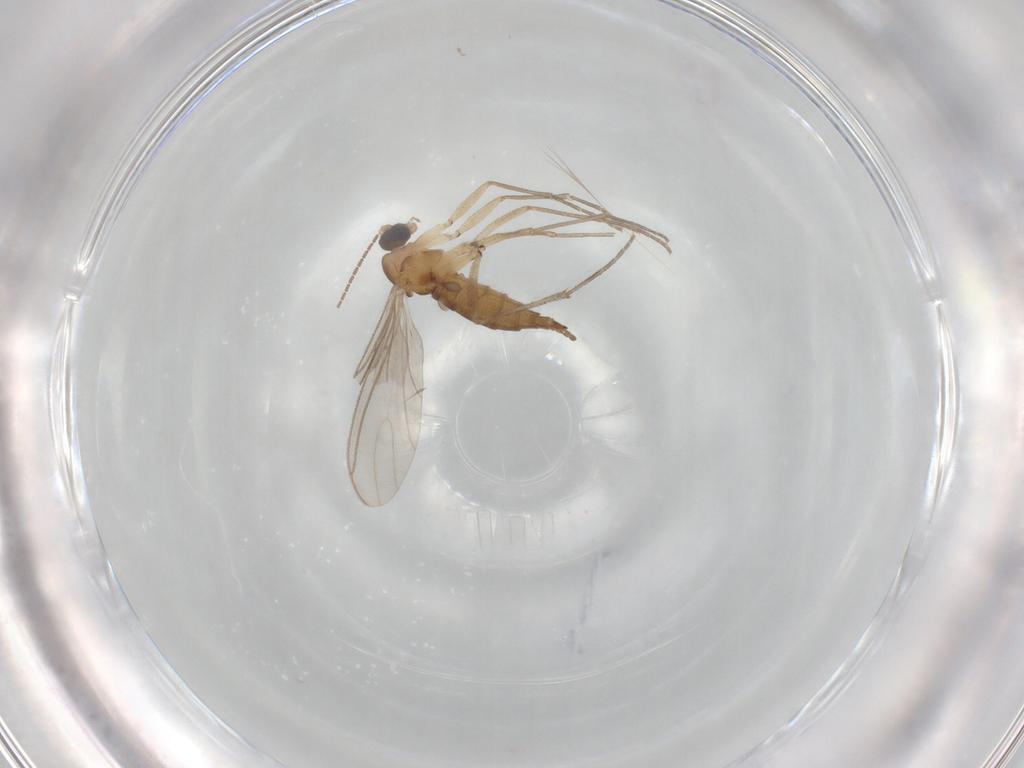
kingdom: Animalia
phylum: Arthropoda
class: Insecta
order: Diptera
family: Sciaridae
